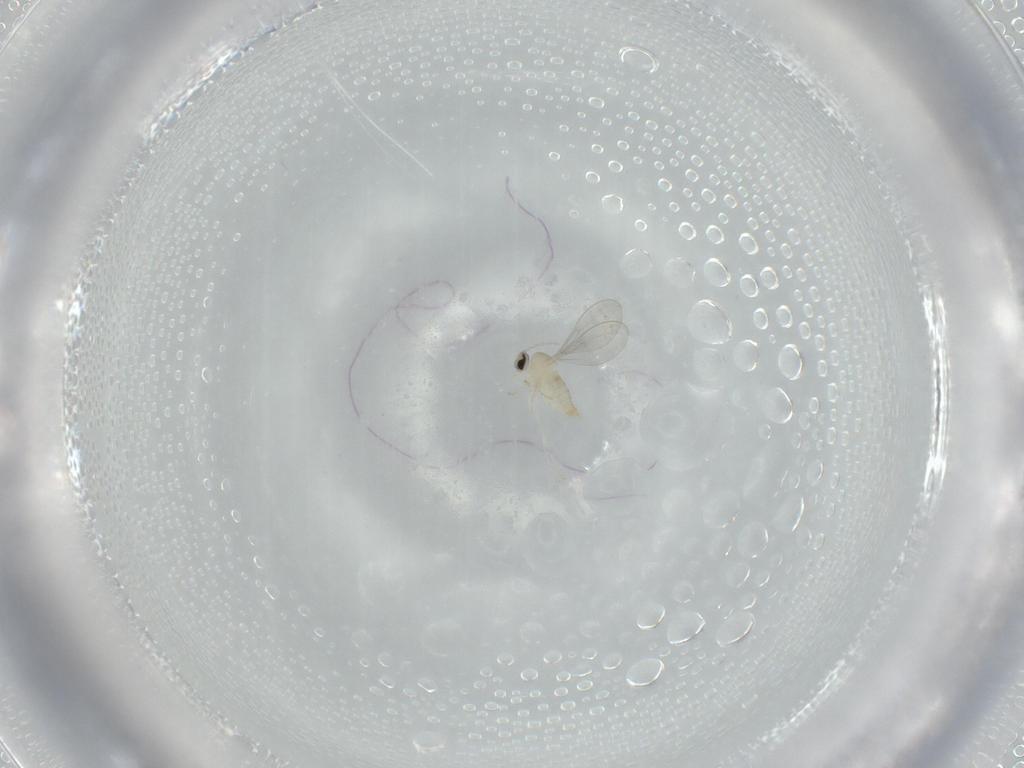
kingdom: Animalia
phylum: Arthropoda
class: Insecta
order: Diptera
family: Cecidomyiidae
